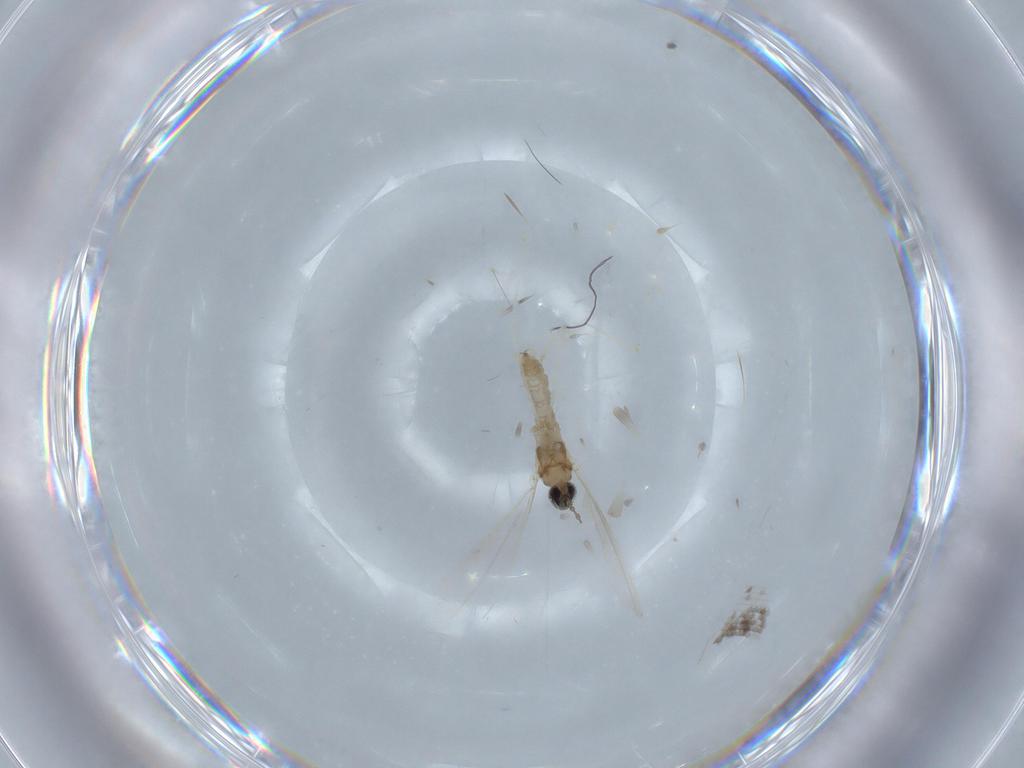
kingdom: Animalia
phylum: Arthropoda
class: Insecta
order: Diptera
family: Cecidomyiidae
